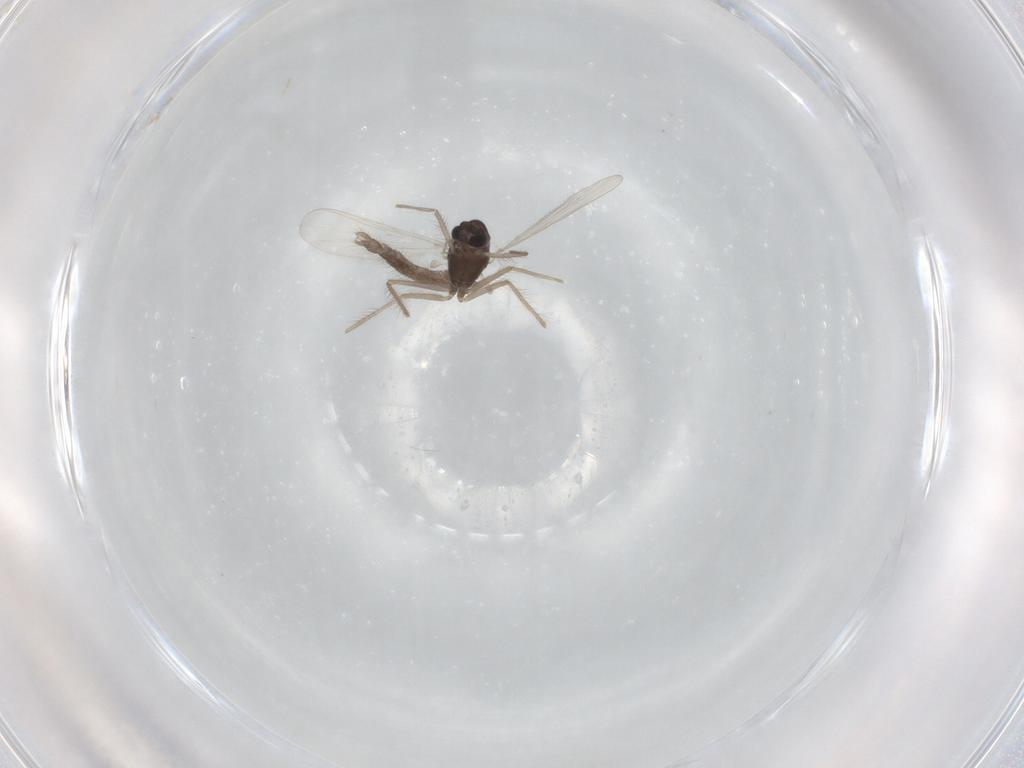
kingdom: Animalia
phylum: Arthropoda
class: Insecta
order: Diptera
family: Chironomidae
